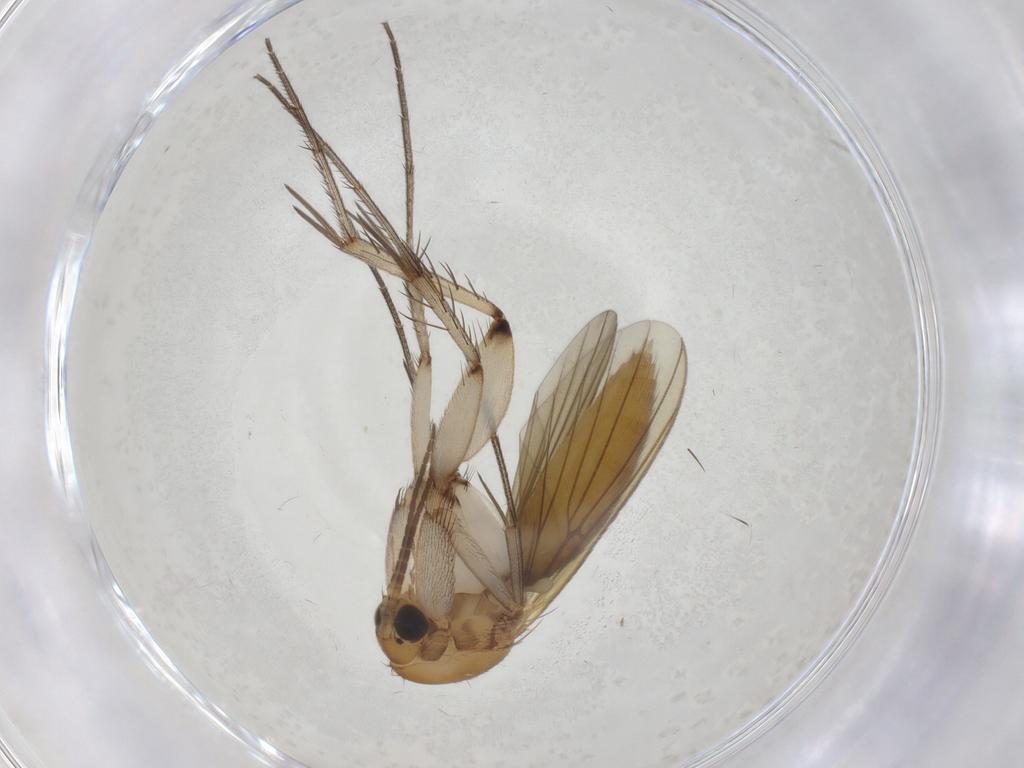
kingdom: Animalia
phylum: Arthropoda
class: Insecta
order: Diptera
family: Mycetophilidae
